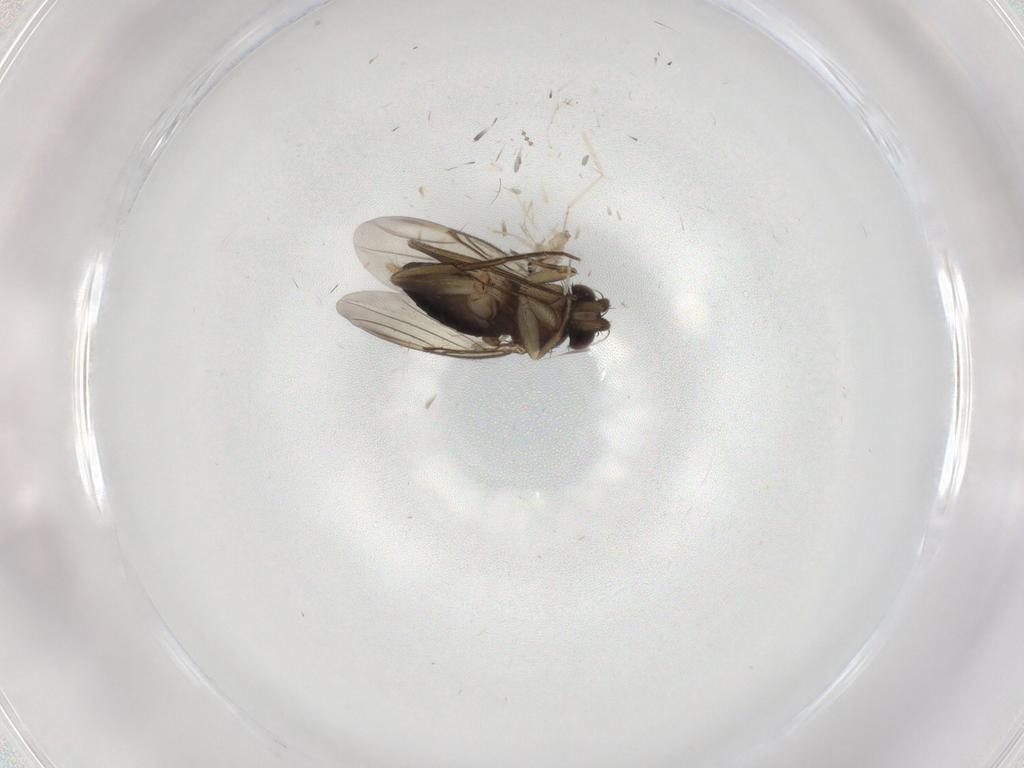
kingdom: Animalia
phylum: Arthropoda
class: Insecta
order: Diptera
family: Cecidomyiidae
